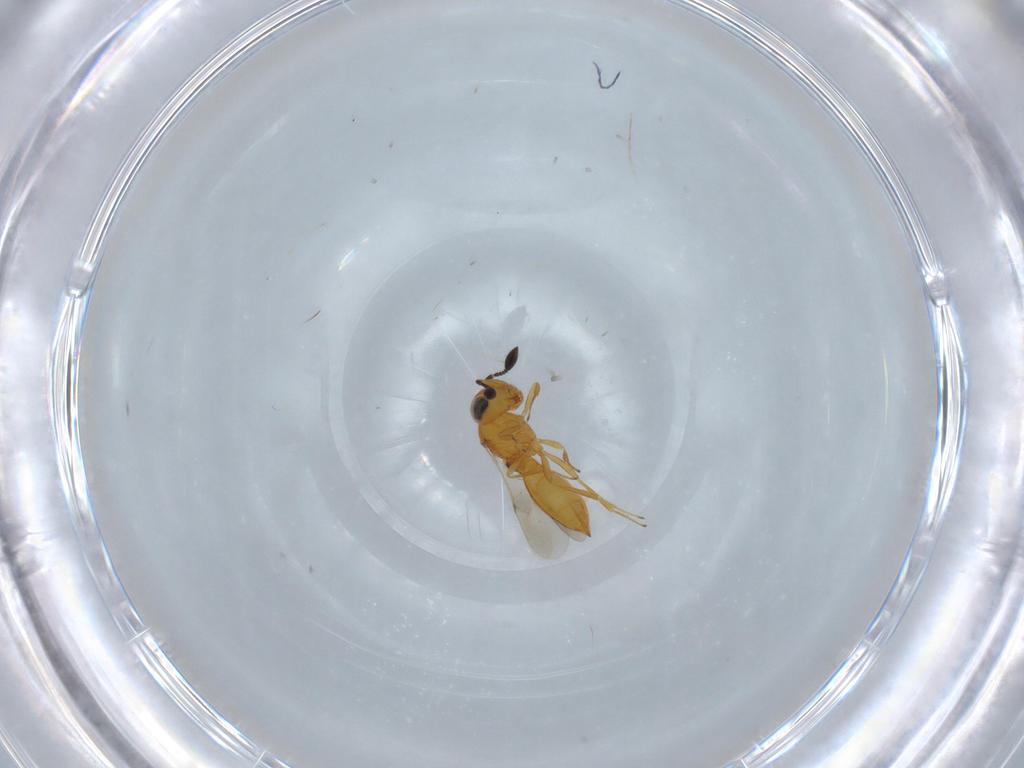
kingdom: Animalia
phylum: Arthropoda
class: Insecta
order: Hymenoptera
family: Scelionidae
